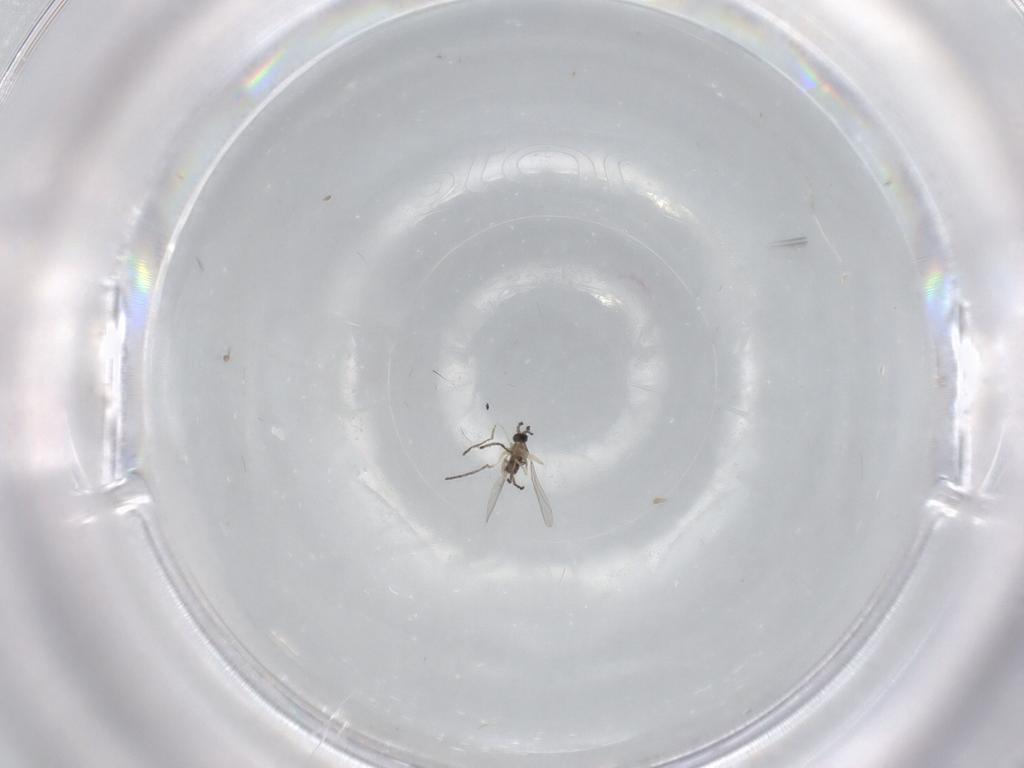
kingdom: Animalia
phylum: Arthropoda
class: Insecta
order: Diptera
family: Cecidomyiidae
